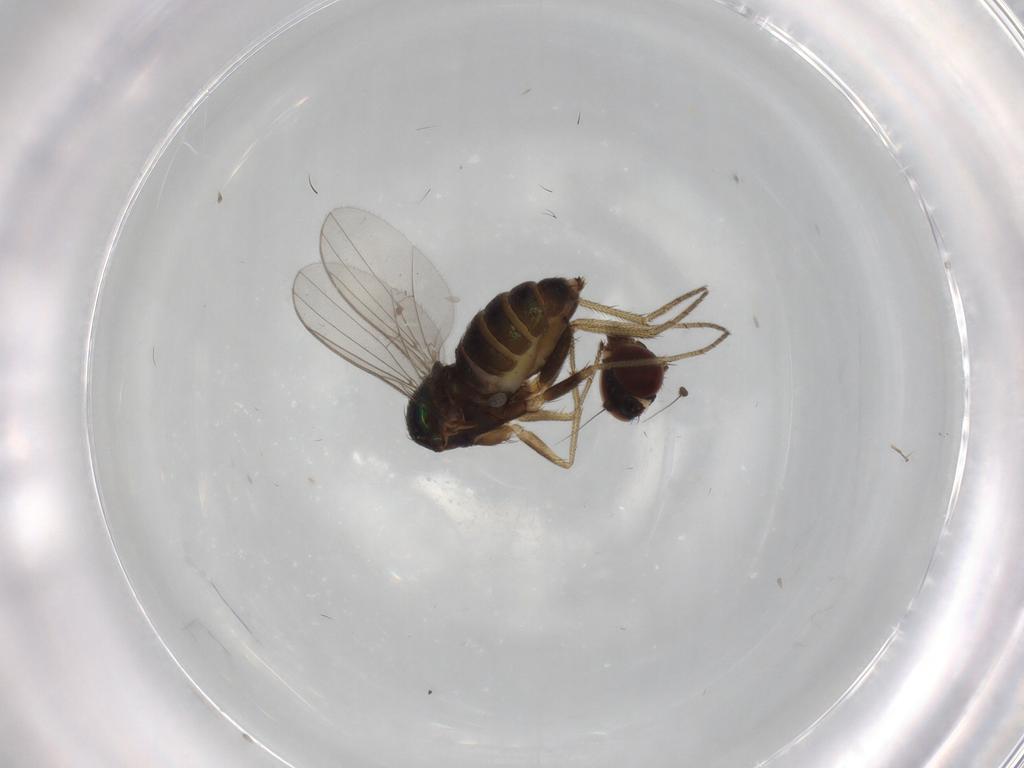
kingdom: Animalia
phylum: Arthropoda
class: Insecta
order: Diptera
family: Dolichopodidae
